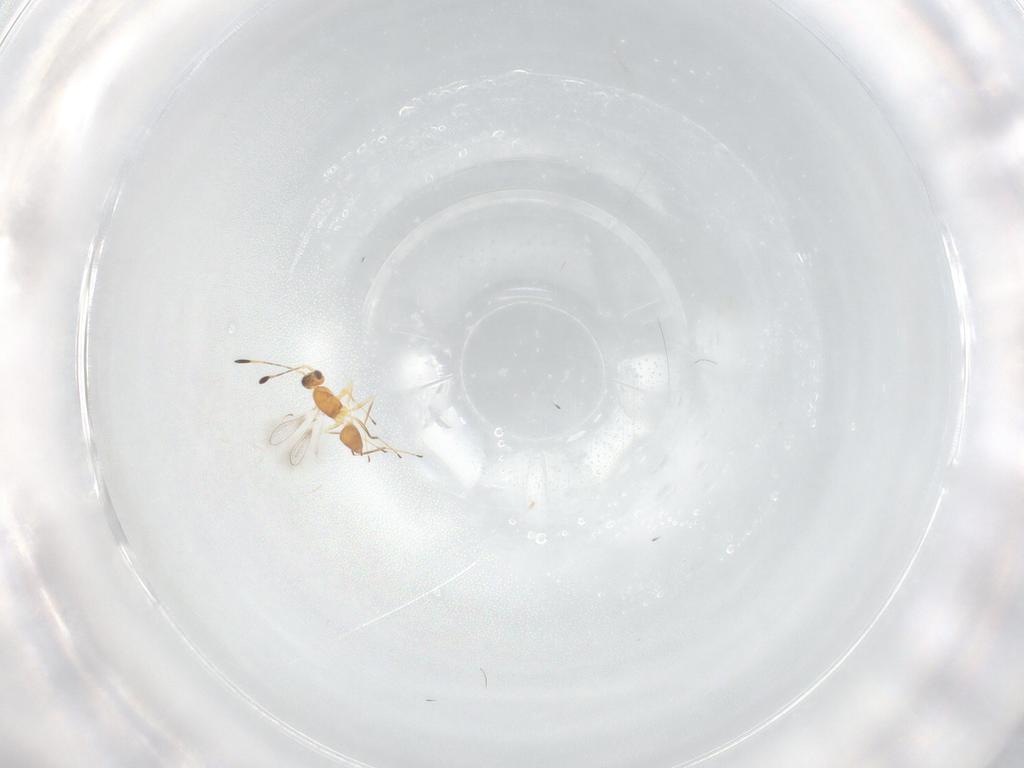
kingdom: Animalia
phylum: Arthropoda
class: Insecta
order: Hymenoptera
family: Mymaridae
